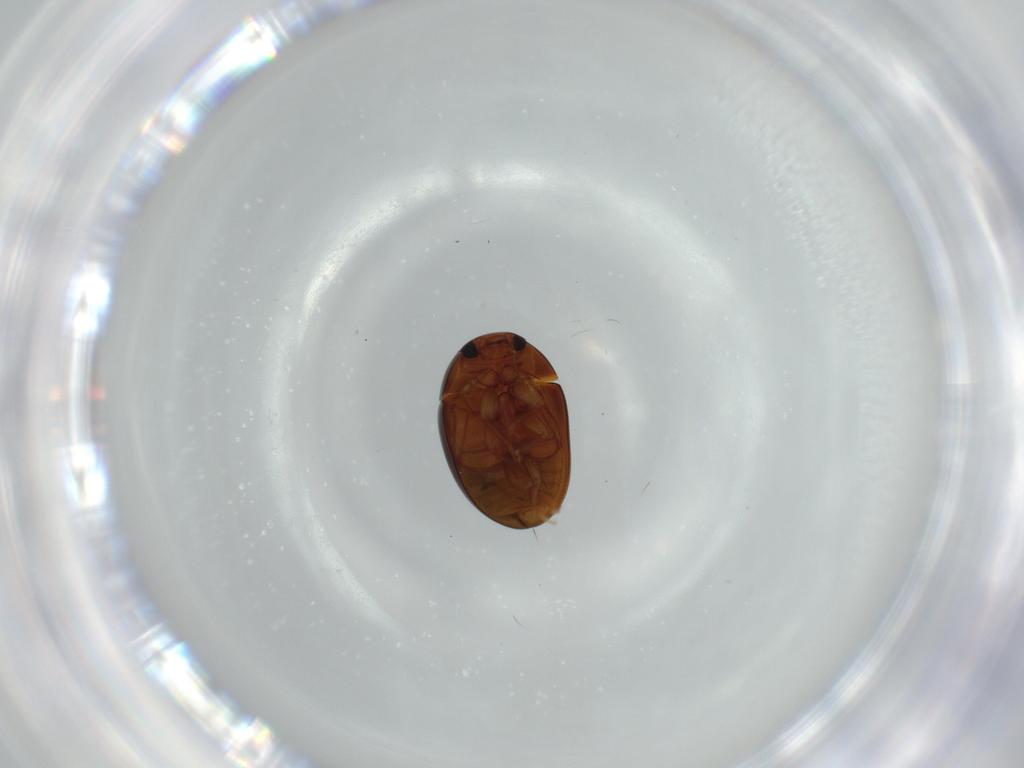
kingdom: Animalia
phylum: Arthropoda
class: Insecta
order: Coleoptera
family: Phalacridae
